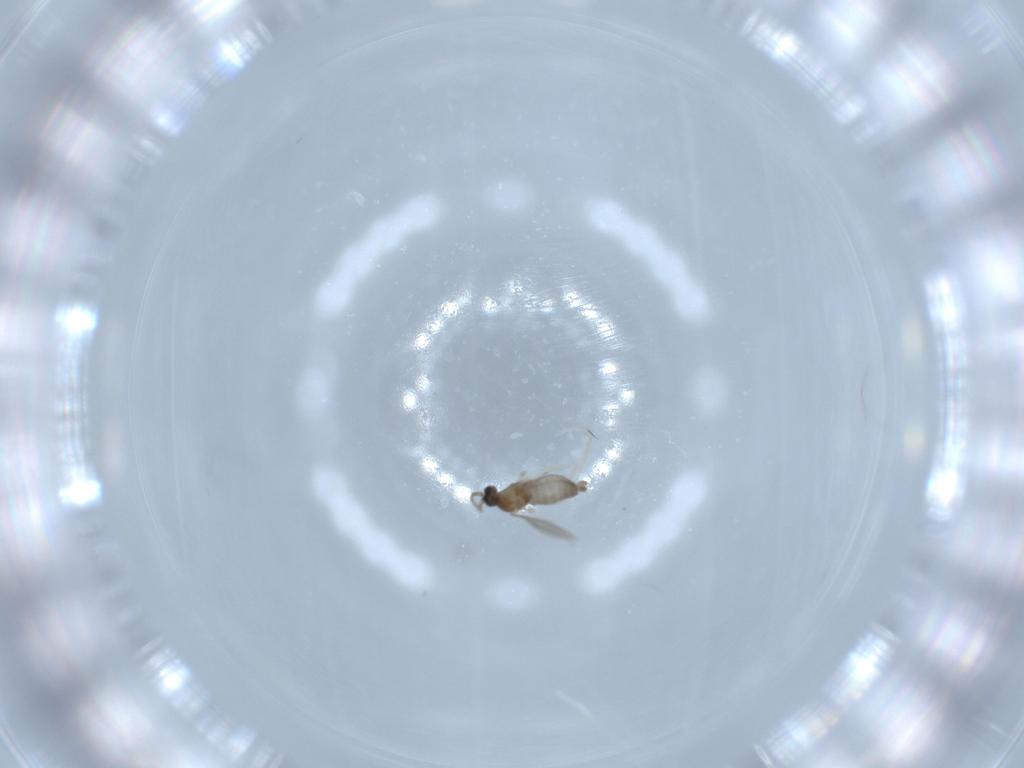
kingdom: Animalia
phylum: Arthropoda
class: Insecta
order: Diptera
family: Cecidomyiidae
